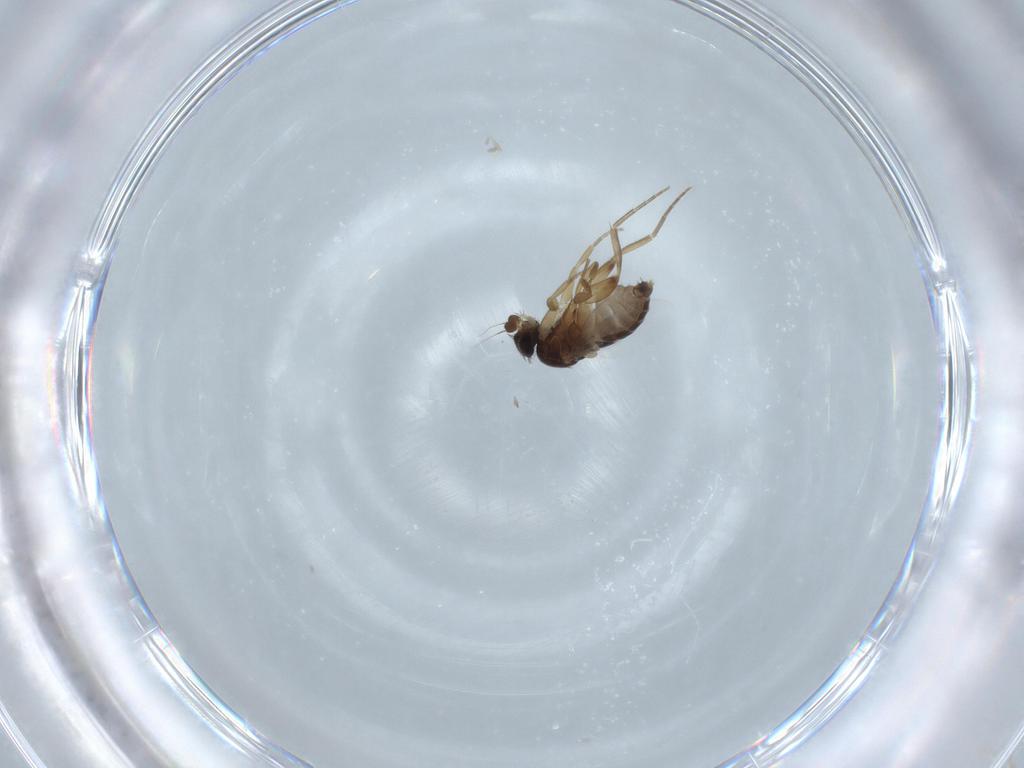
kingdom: Animalia
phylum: Arthropoda
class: Insecta
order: Diptera
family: Phoridae
